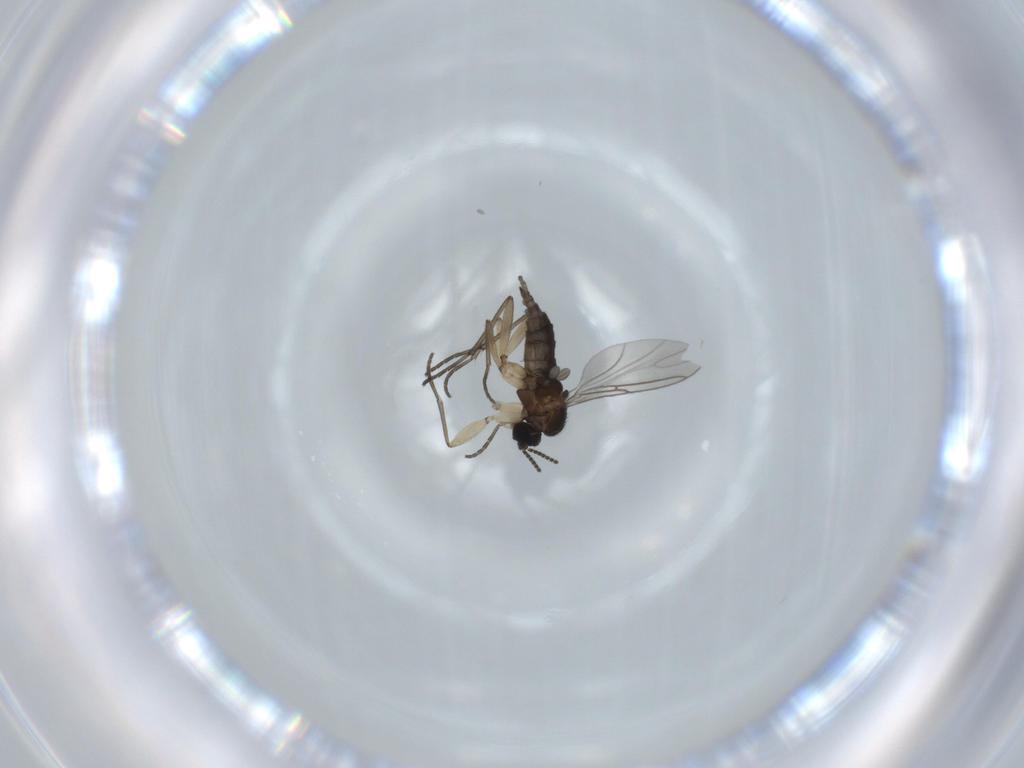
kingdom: Animalia
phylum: Arthropoda
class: Insecta
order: Diptera
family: Sciaridae
